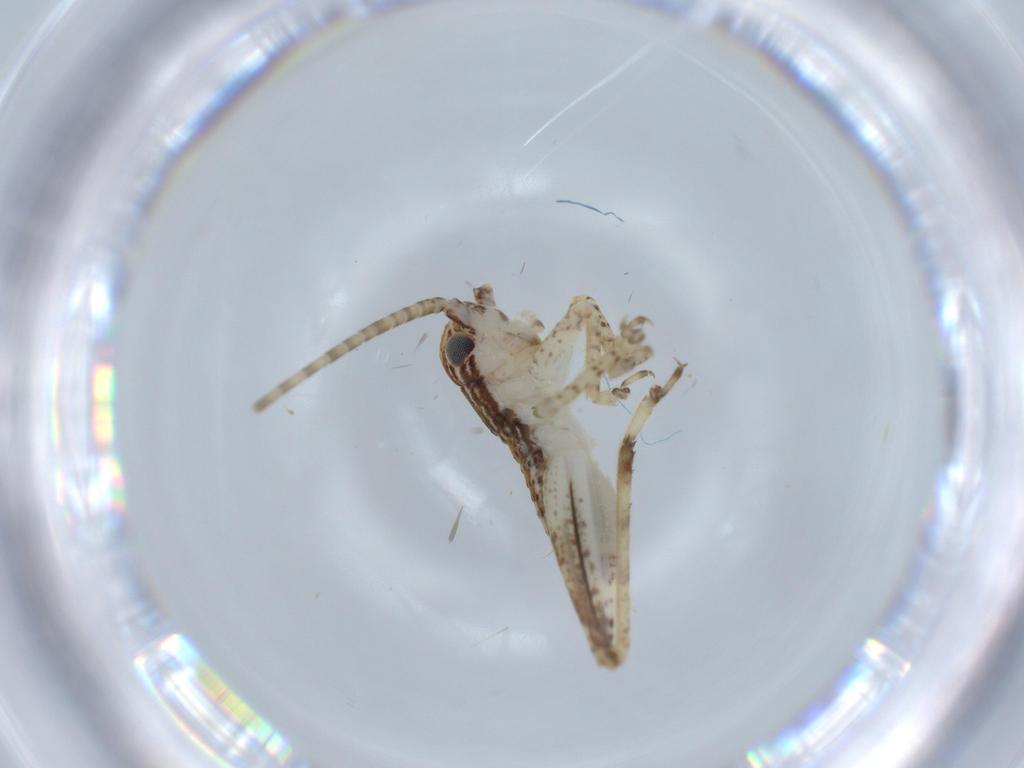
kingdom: Animalia
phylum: Arthropoda
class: Insecta
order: Orthoptera
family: Gryllidae
